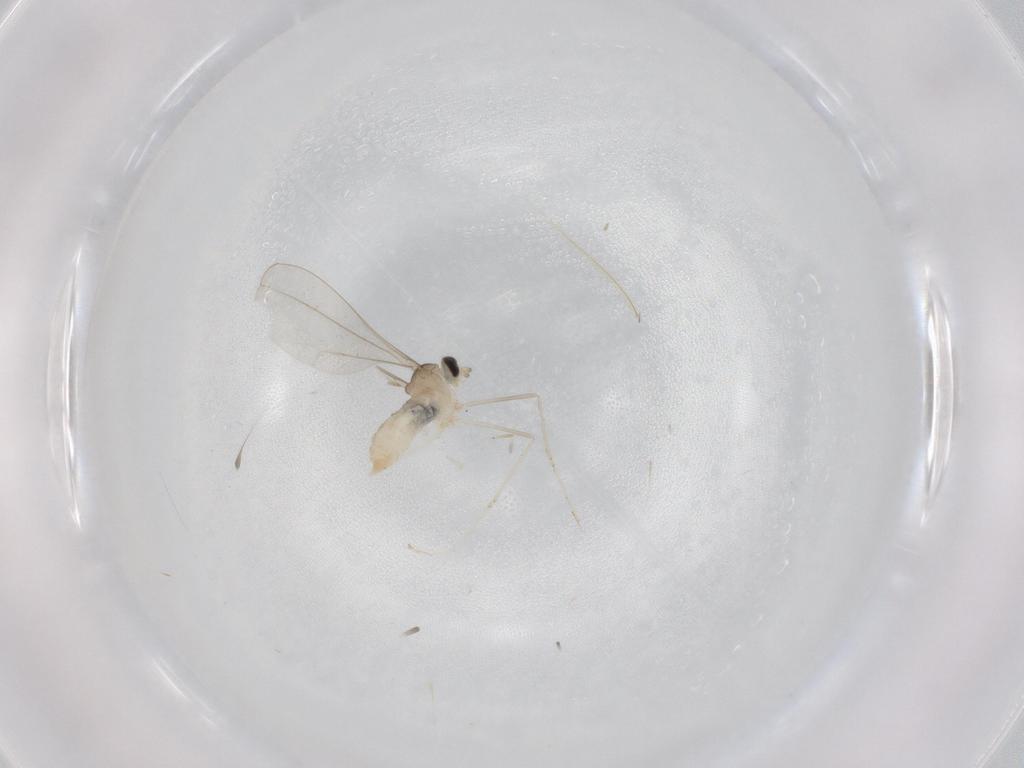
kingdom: Animalia
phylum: Arthropoda
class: Insecta
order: Diptera
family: Cecidomyiidae
